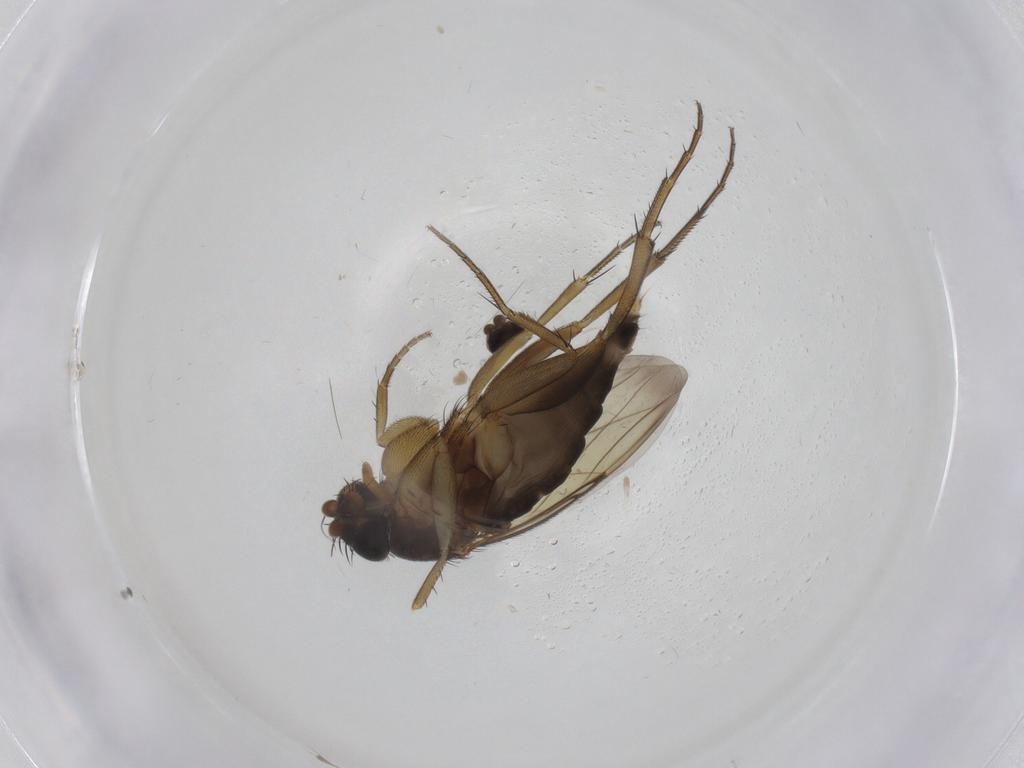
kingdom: Animalia
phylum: Arthropoda
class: Insecta
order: Diptera
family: Phoridae
